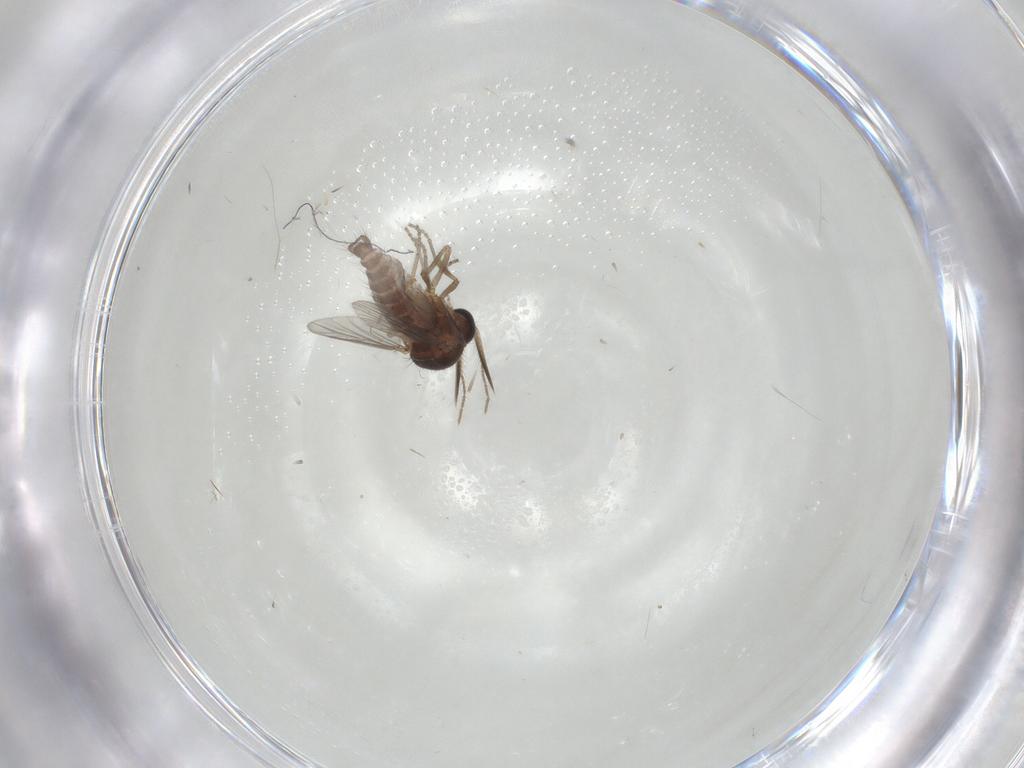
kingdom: Animalia
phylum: Arthropoda
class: Insecta
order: Diptera
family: Ceratopogonidae
